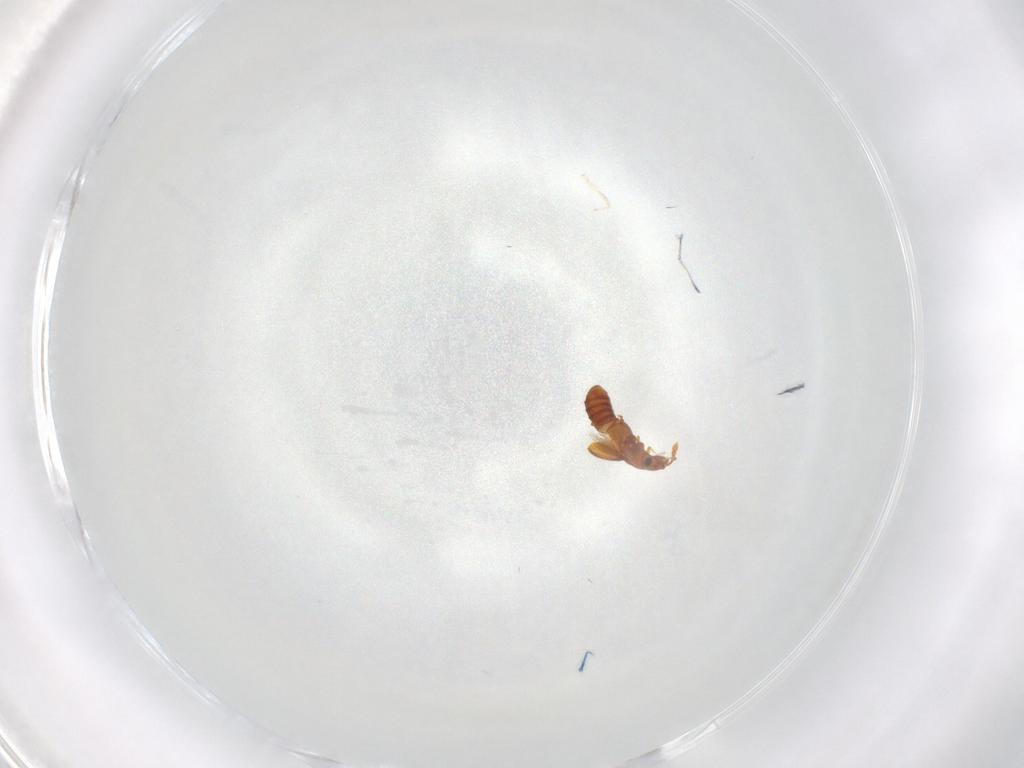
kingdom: Animalia
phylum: Arthropoda
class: Insecta
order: Coleoptera
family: Staphylinidae
